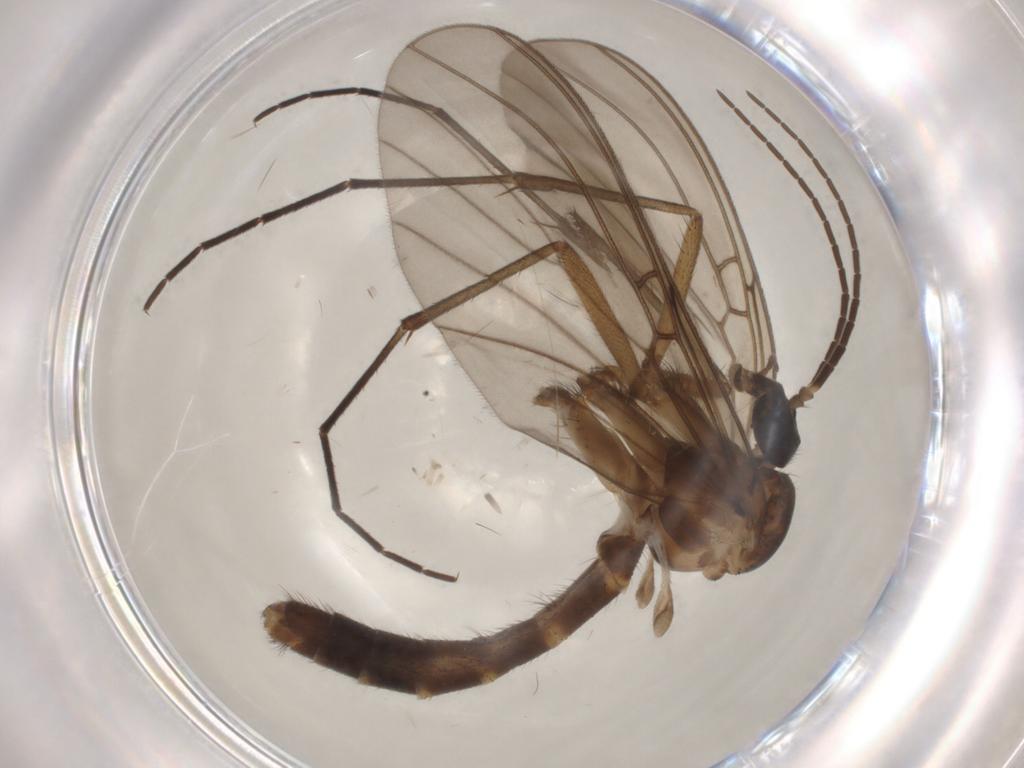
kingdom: Animalia
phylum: Arthropoda
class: Insecta
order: Diptera
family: Mycetophilidae
